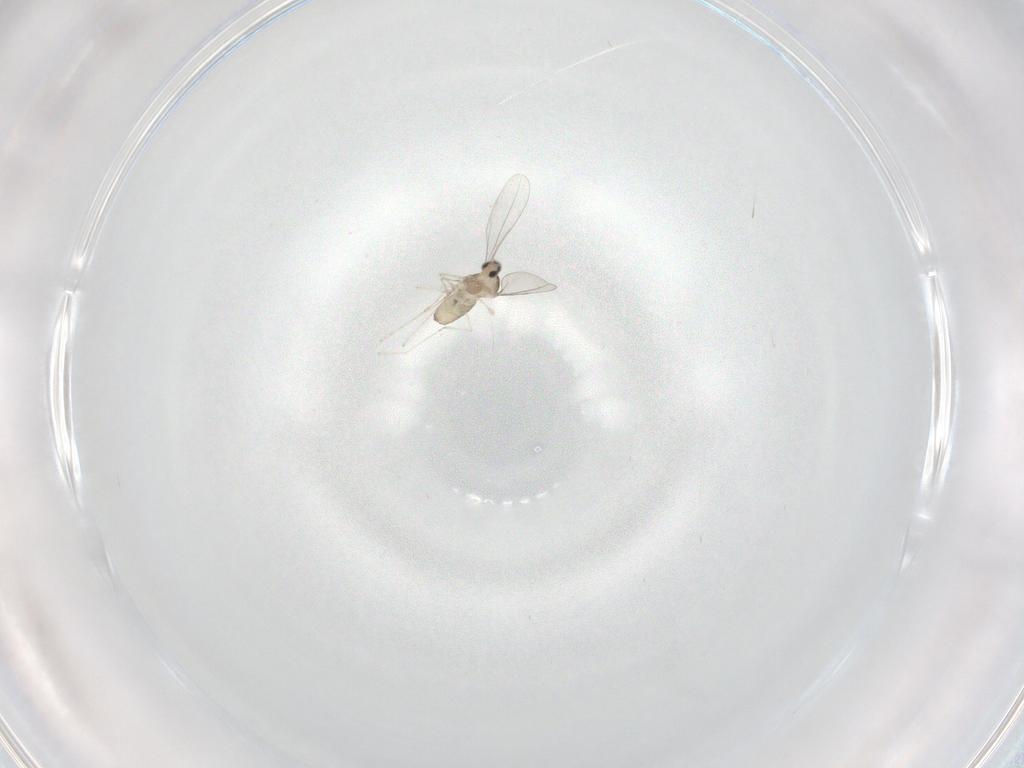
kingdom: Animalia
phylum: Arthropoda
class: Insecta
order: Diptera
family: Cecidomyiidae
